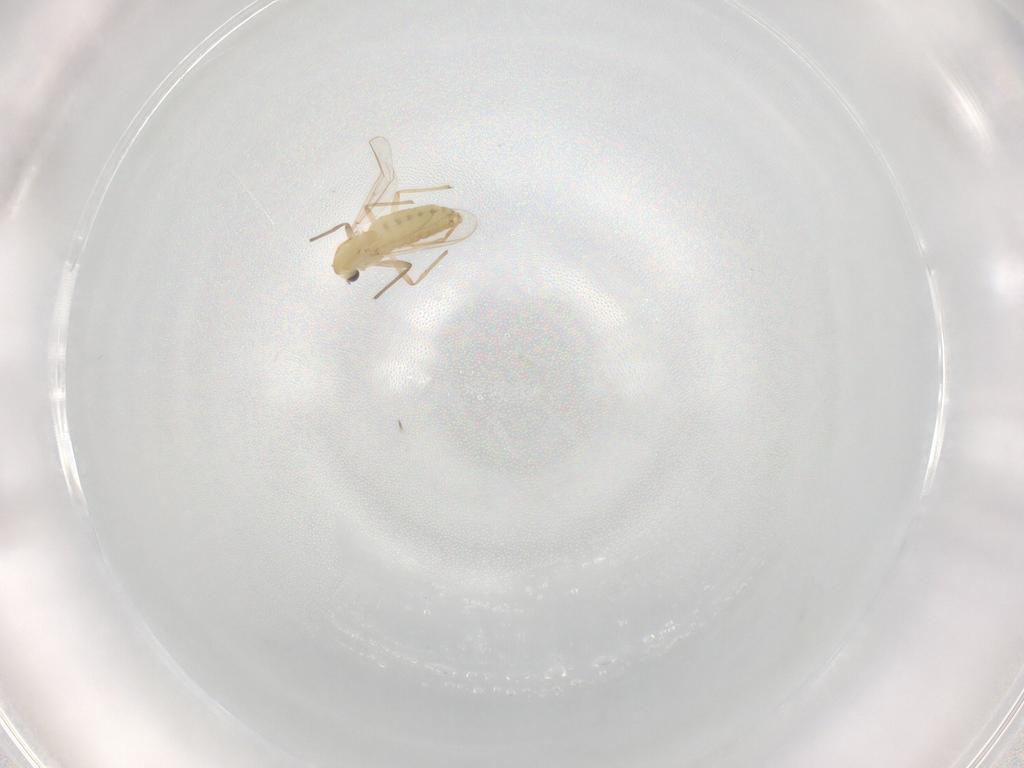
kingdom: Animalia
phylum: Arthropoda
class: Insecta
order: Diptera
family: Chironomidae
